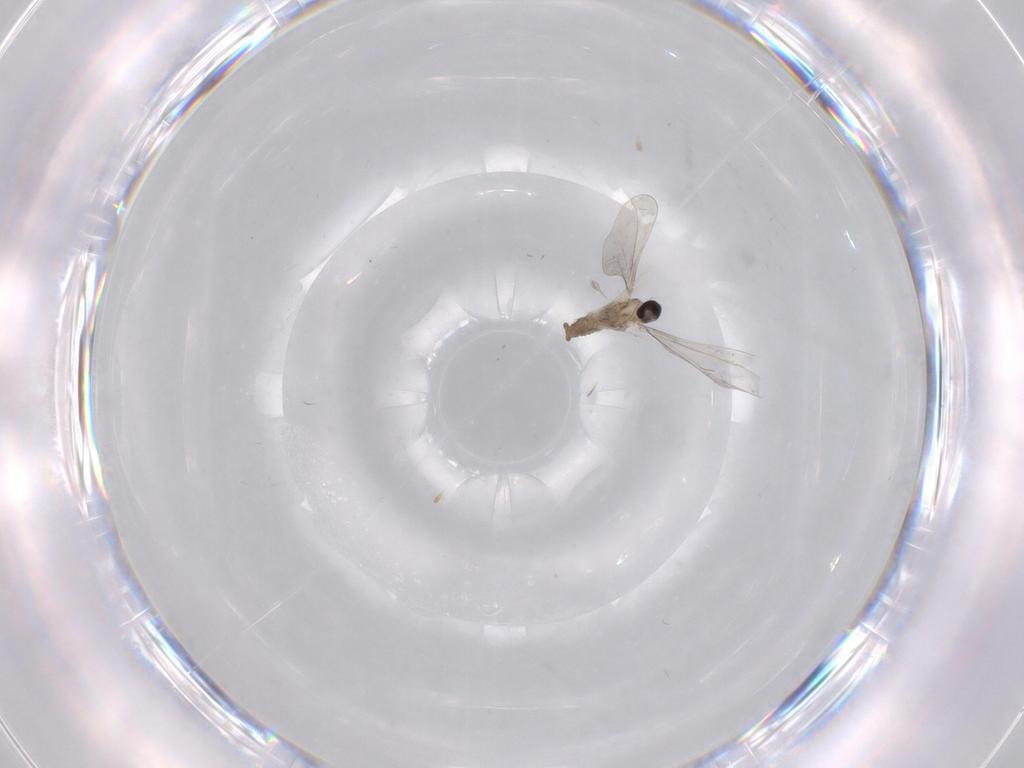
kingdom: Animalia
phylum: Arthropoda
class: Insecta
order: Diptera
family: Cecidomyiidae
